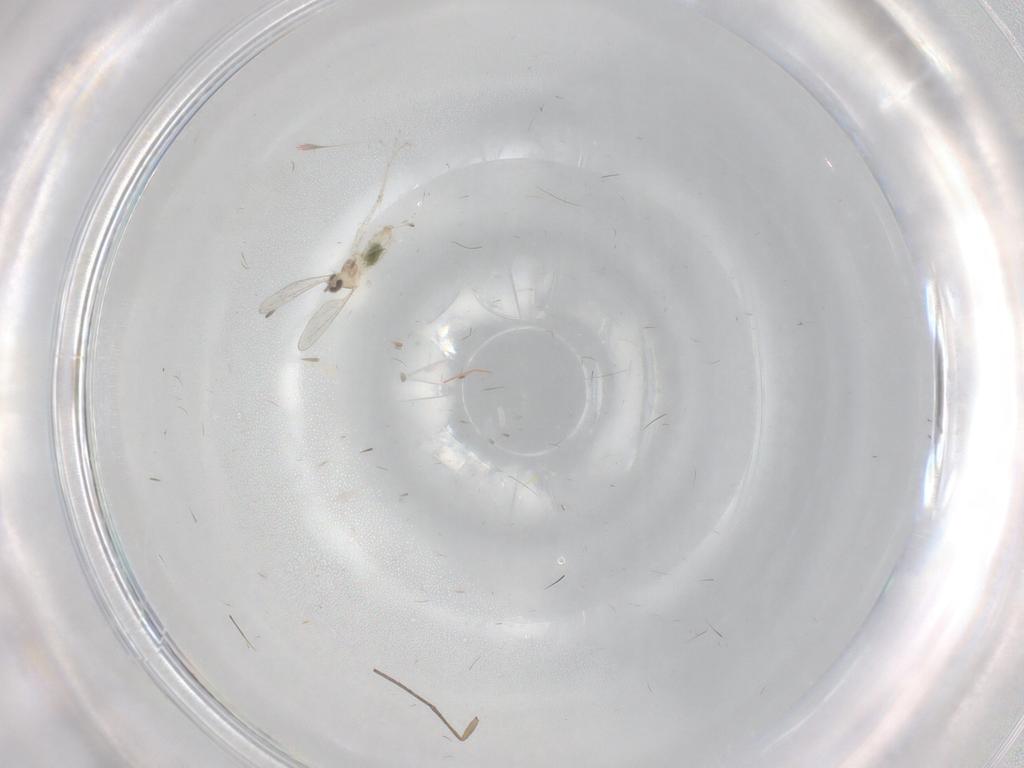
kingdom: Animalia
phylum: Arthropoda
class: Insecta
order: Diptera
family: Cecidomyiidae
